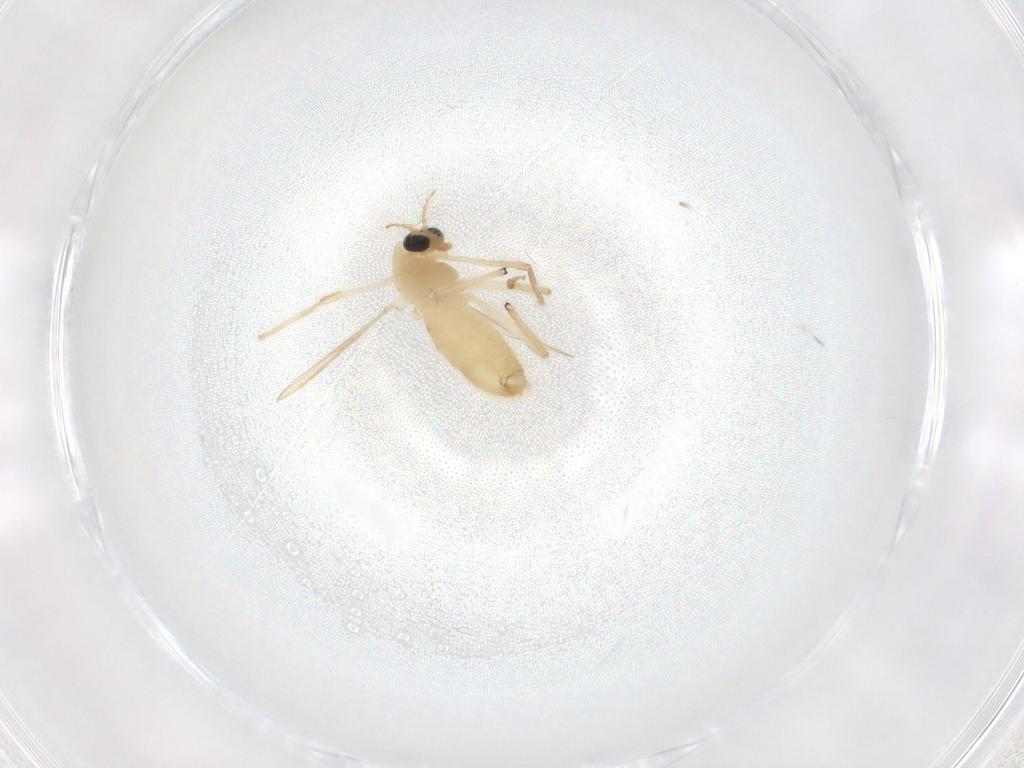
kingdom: Animalia
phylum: Arthropoda
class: Insecta
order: Diptera
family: Chironomidae
